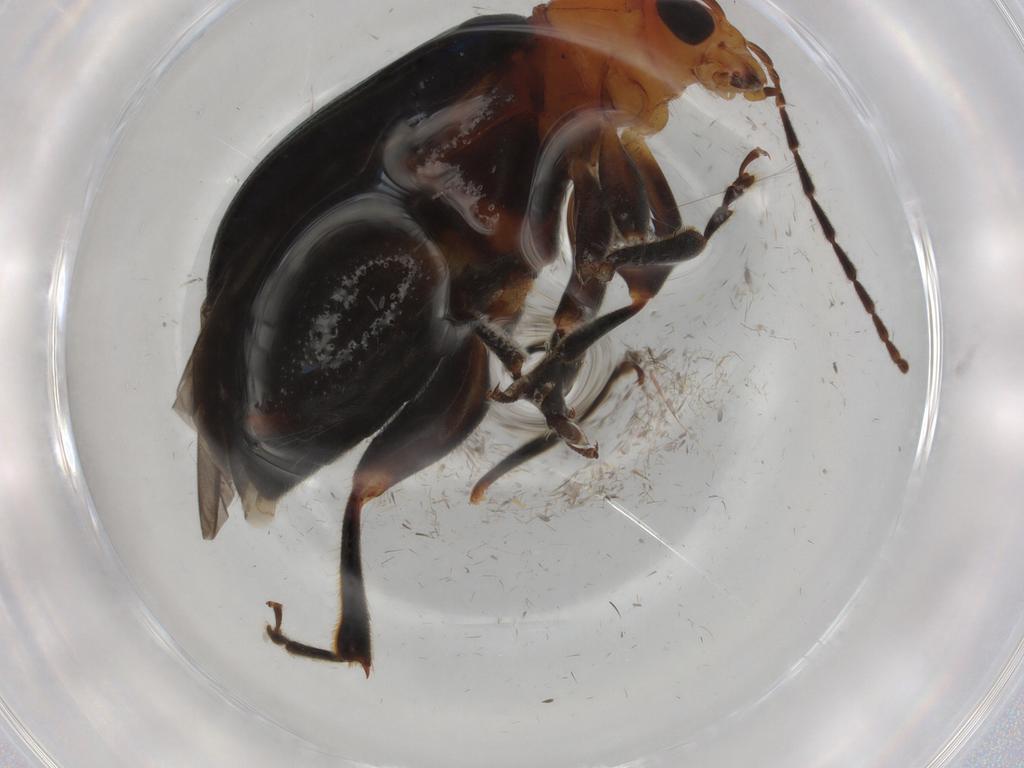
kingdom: Animalia
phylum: Arthropoda
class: Insecta
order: Coleoptera
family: Chrysomelidae
